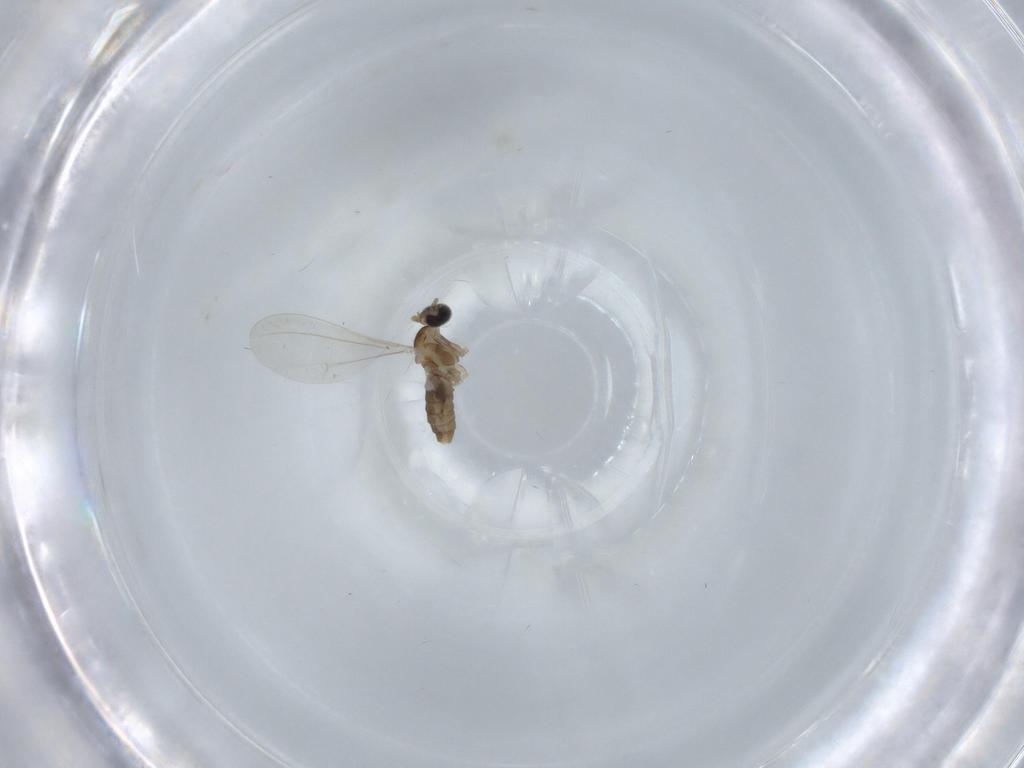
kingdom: Animalia
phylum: Arthropoda
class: Insecta
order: Diptera
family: Cecidomyiidae
